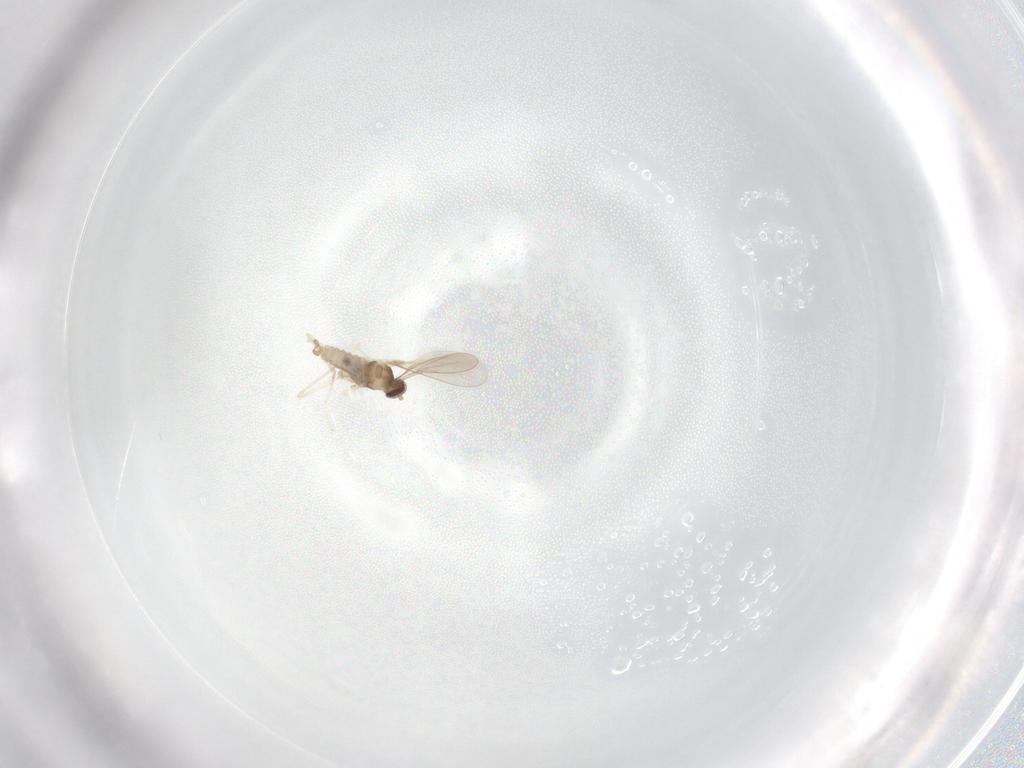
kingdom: Animalia
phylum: Arthropoda
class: Insecta
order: Diptera
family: Cecidomyiidae
